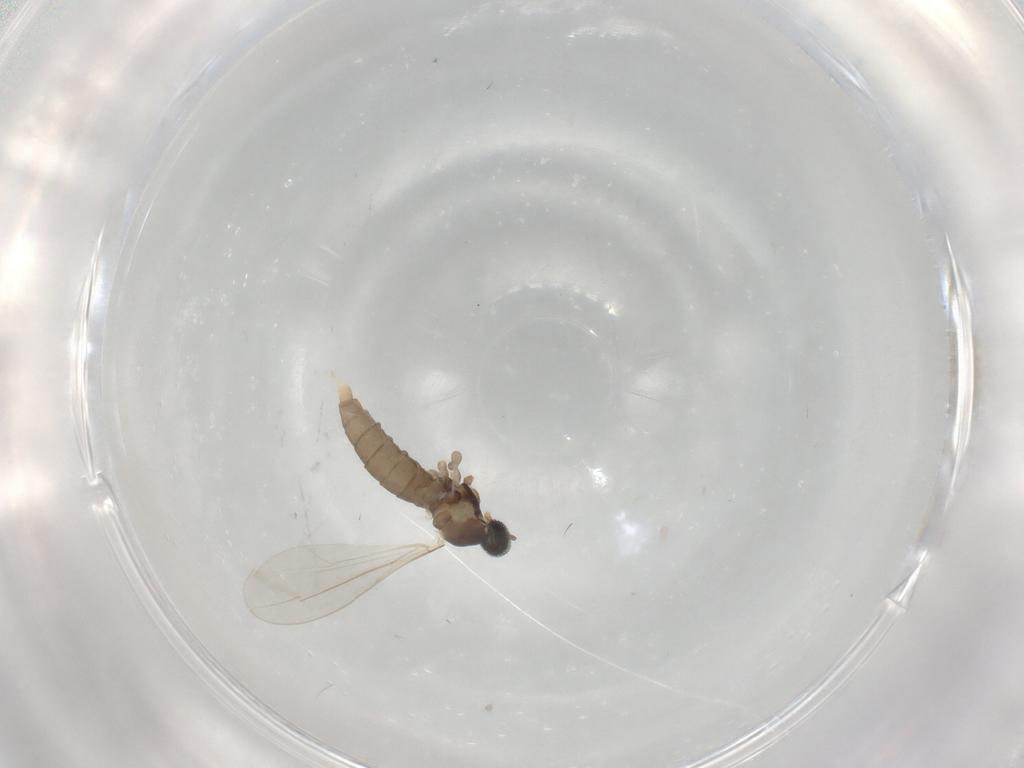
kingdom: Animalia
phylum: Arthropoda
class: Insecta
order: Diptera
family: Cecidomyiidae
